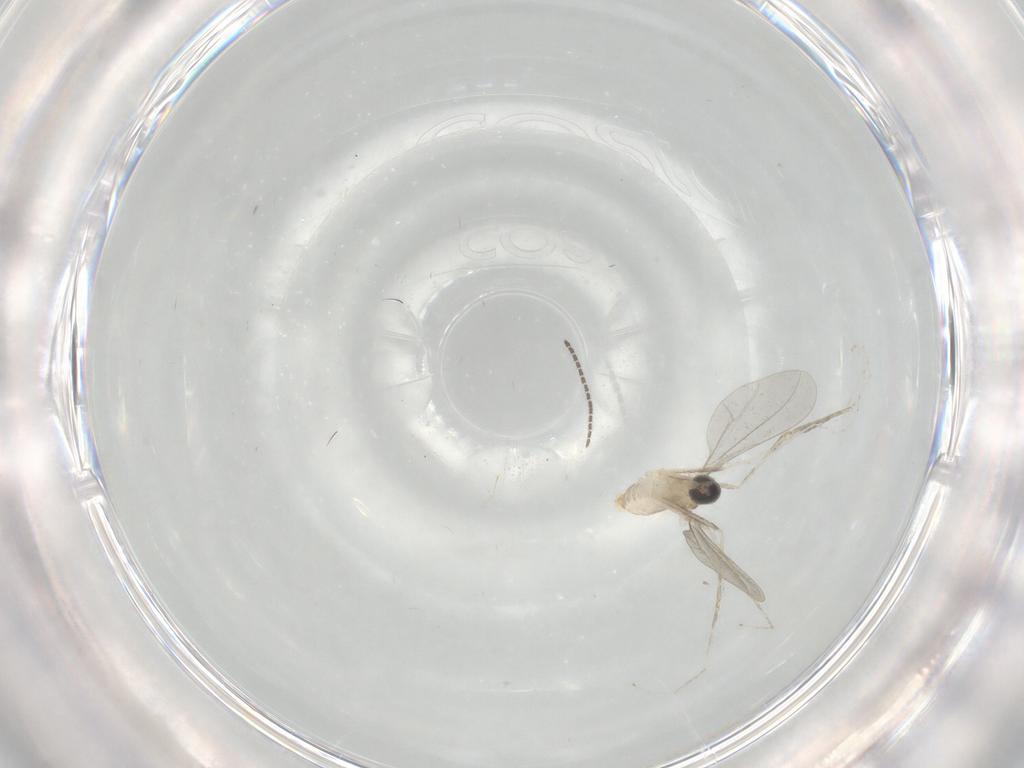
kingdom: Animalia
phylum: Arthropoda
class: Insecta
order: Diptera
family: Cecidomyiidae
